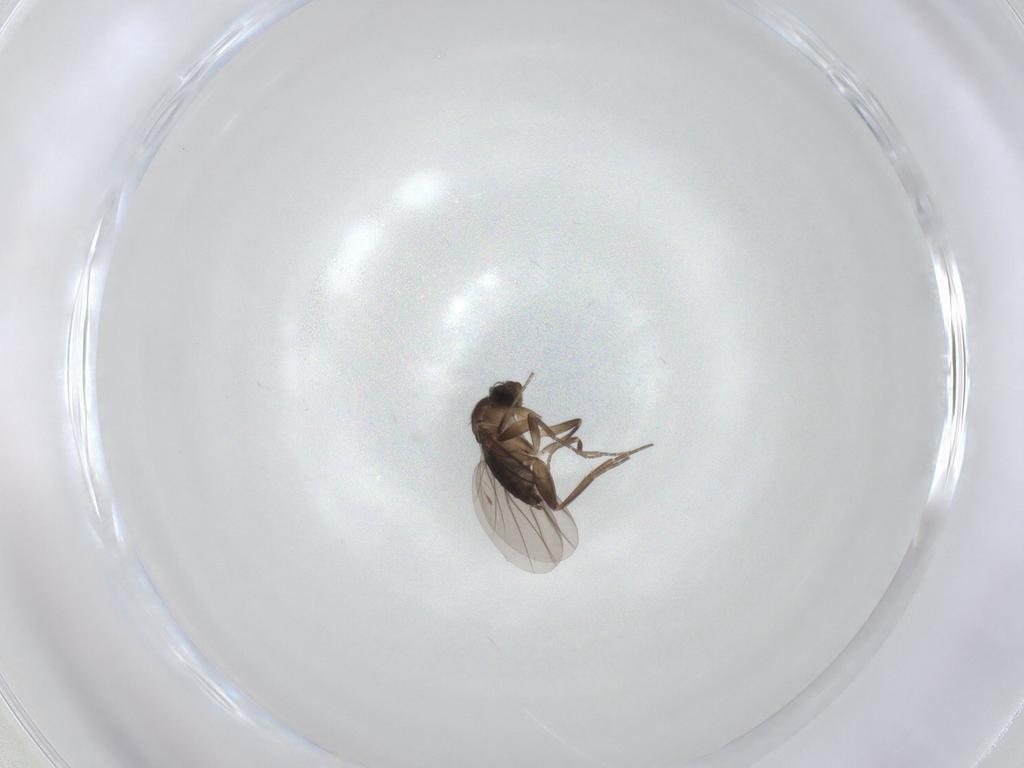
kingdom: Animalia
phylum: Arthropoda
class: Insecta
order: Diptera
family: Phoridae
